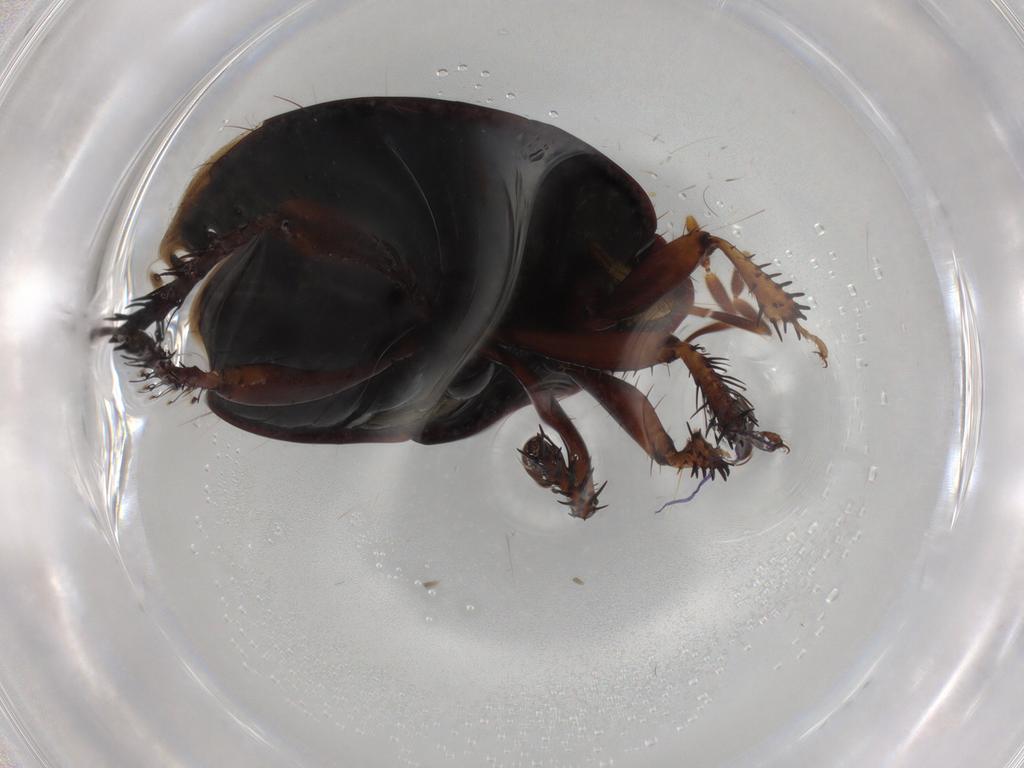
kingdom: Animalia
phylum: Arthropoda
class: Insecta
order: Hemiptera
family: Cydnidae
